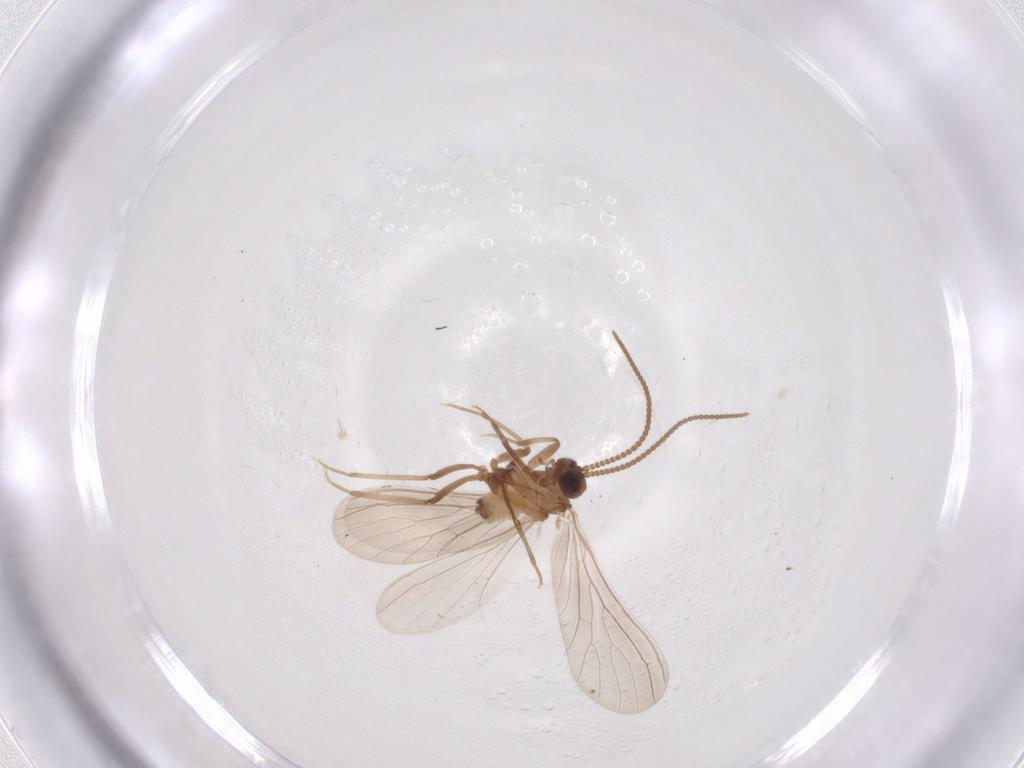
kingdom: Animalia
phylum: Arthropoda
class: Insecta
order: Neuroptera
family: Coniopterygidae
